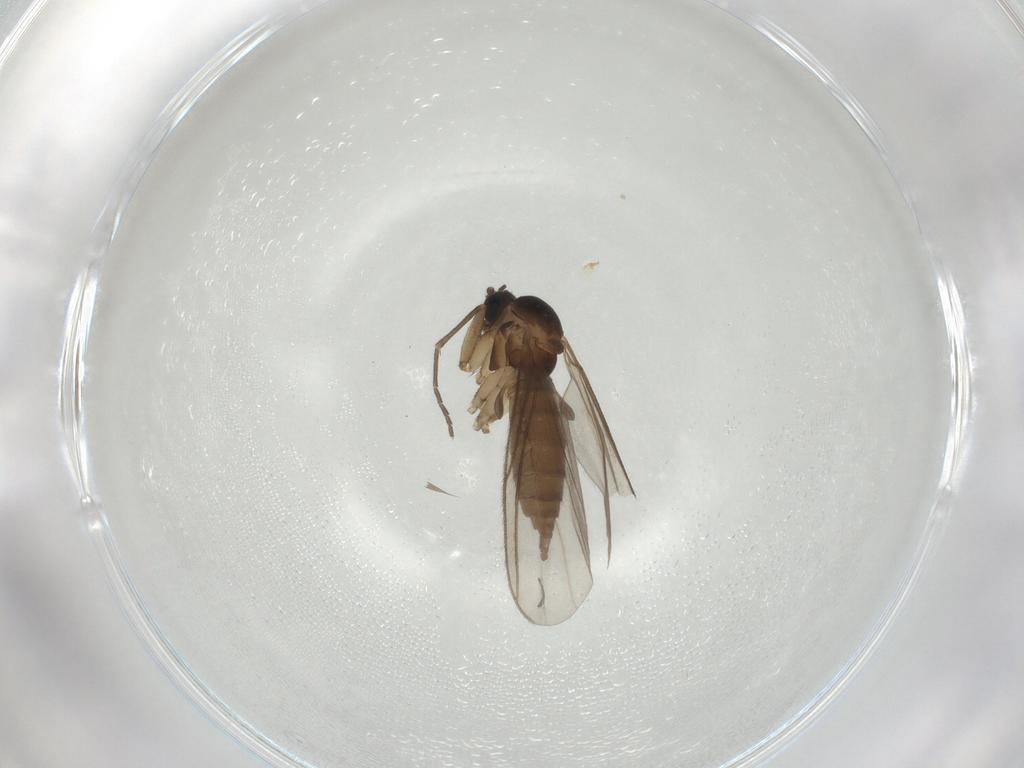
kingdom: Animalia
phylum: Arthropoda
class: Insecta
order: Diptera
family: Sciaridae
